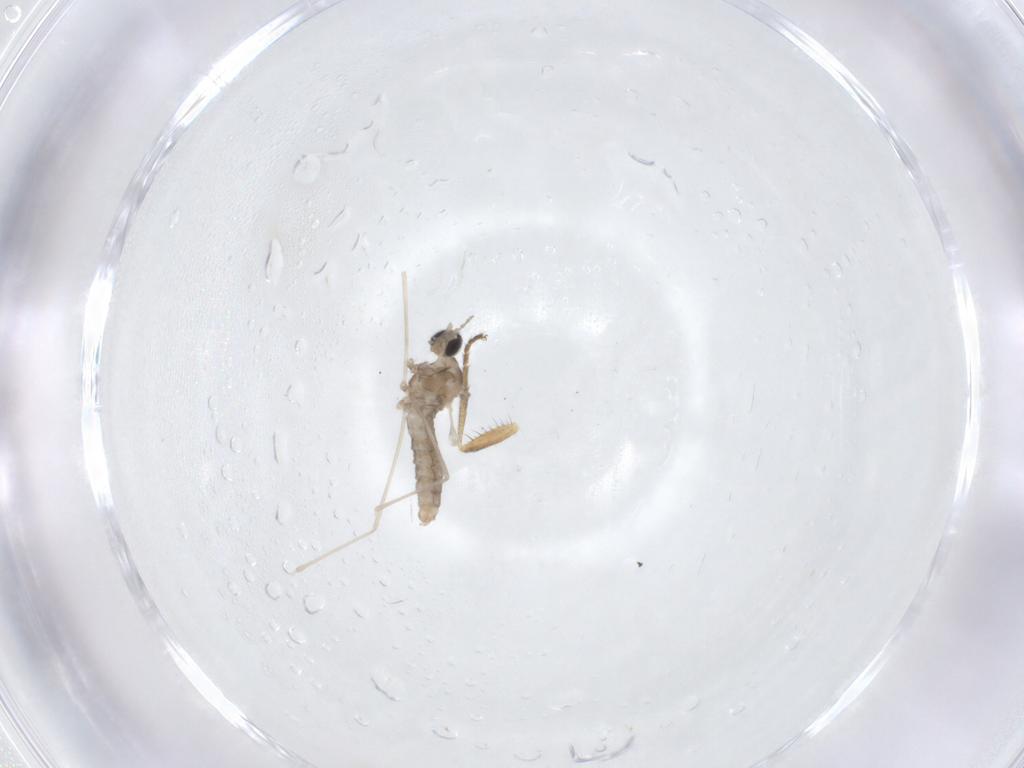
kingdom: Animalia
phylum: Arthropoda
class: Insecta
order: Diptera
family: Cecidomyiidae
